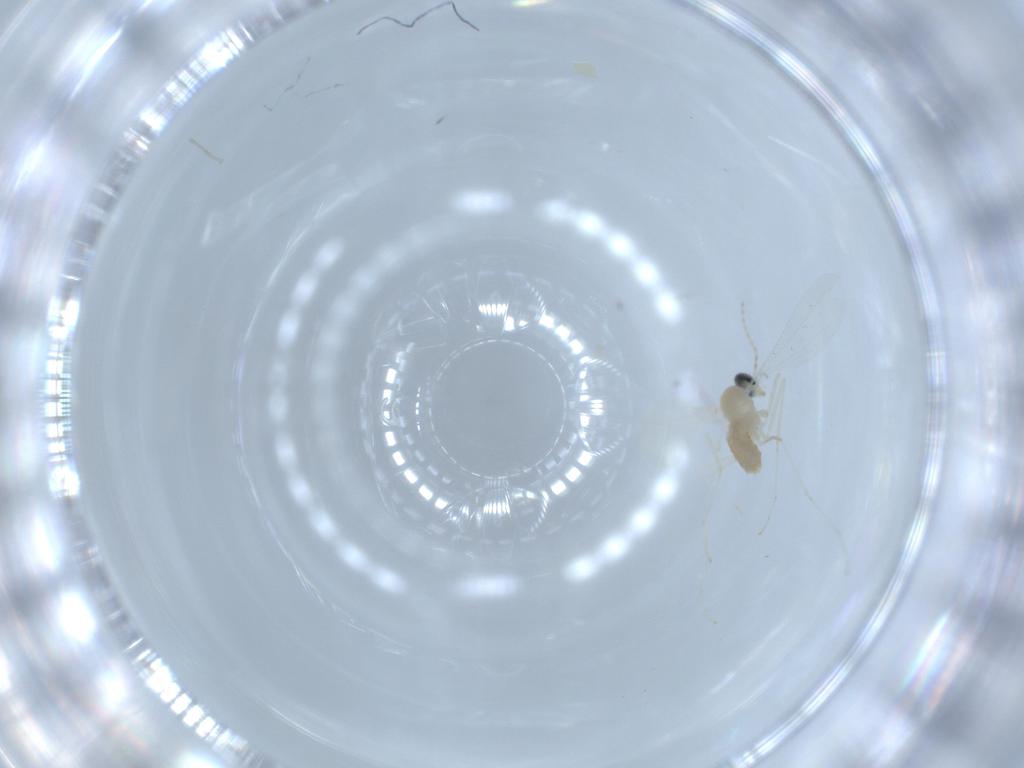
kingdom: Animalia
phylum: Arthropoda
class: Insecta
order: Diptera
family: Cecidomyiidae
